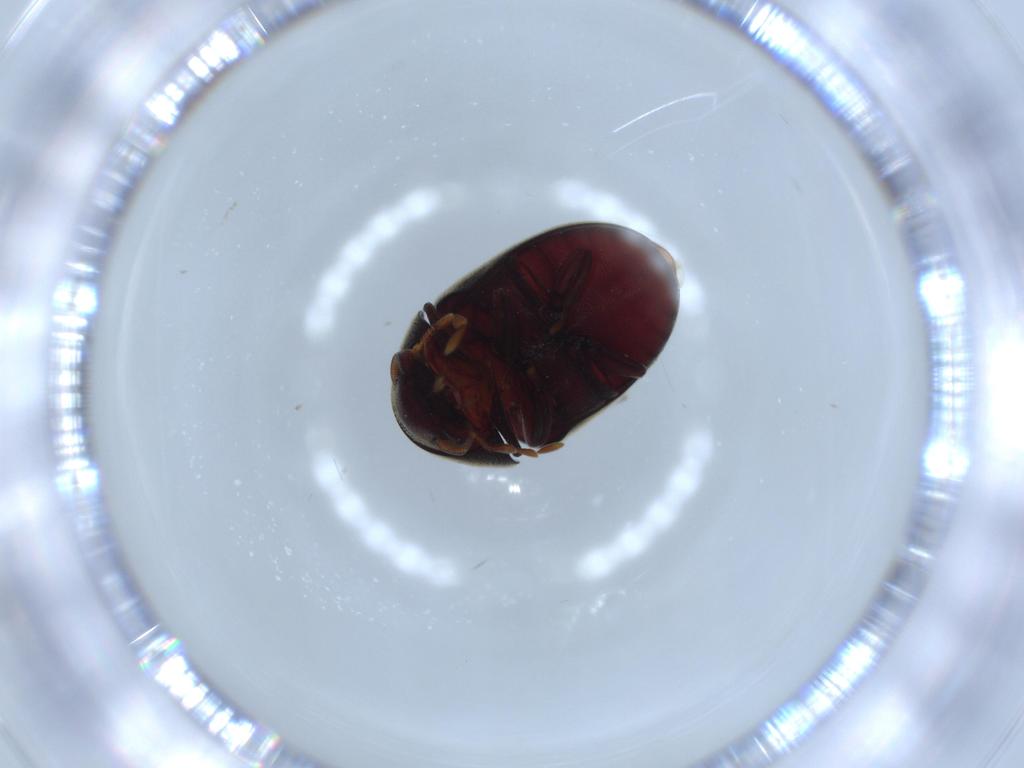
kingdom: Animalia
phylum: Arthropoda
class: Insecta
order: Coleoptera
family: Ptinidae
